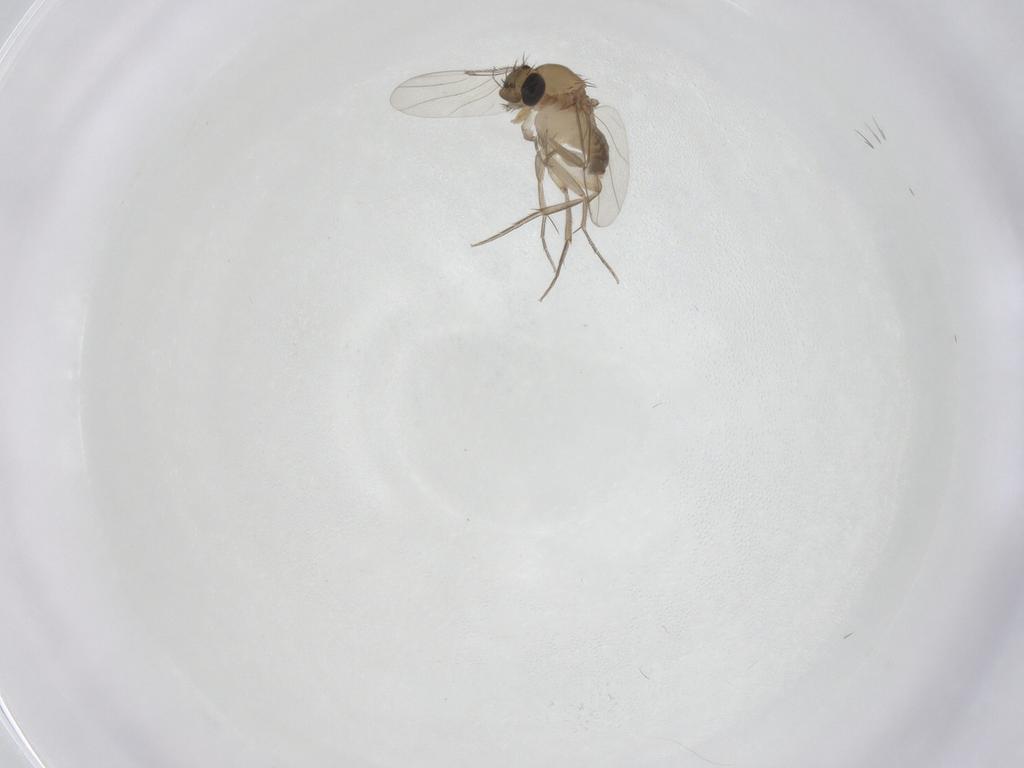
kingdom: Animalia
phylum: Arthropoda
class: Insecta
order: Diptera
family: Phoridae
